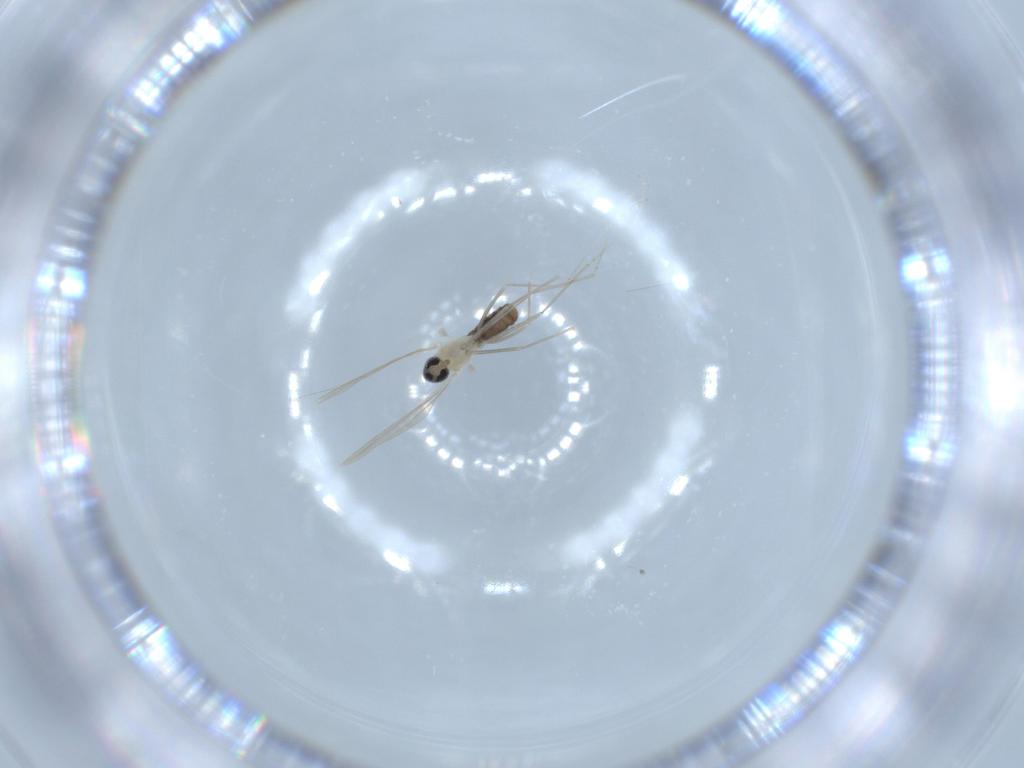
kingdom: Animalia
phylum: Arthropoda
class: Insecta
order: Diptera
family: Cecidomyiidae
